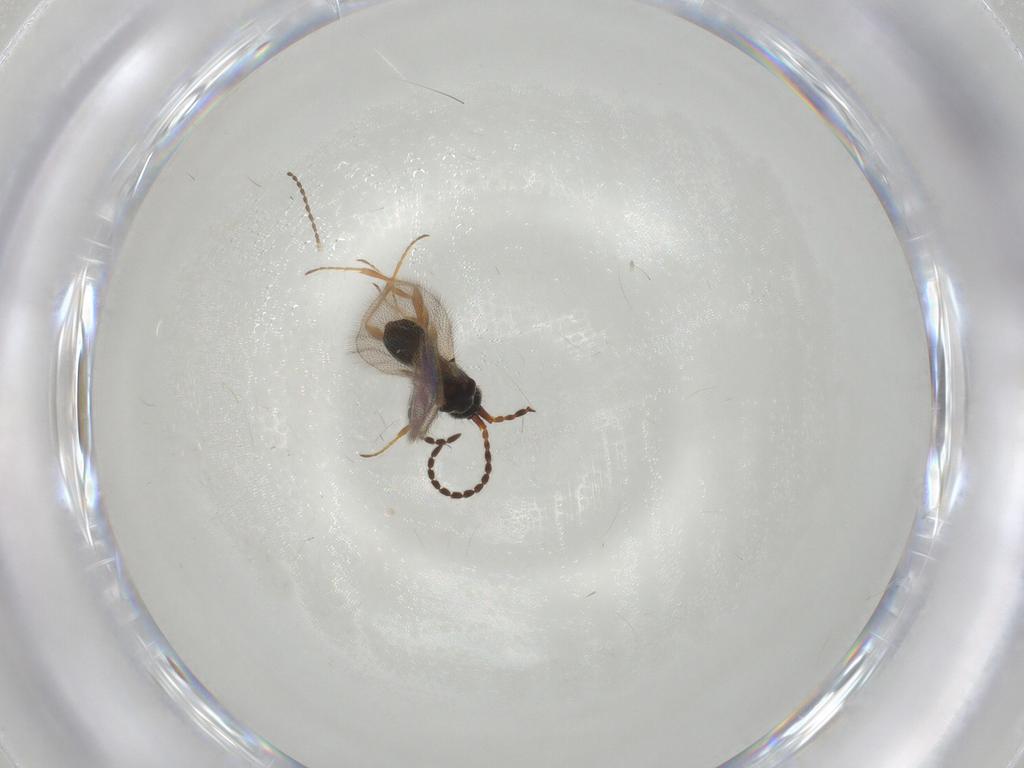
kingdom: Animalia
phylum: Arthropoda
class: Insecta
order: Hymenoptera
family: Diapriidae
